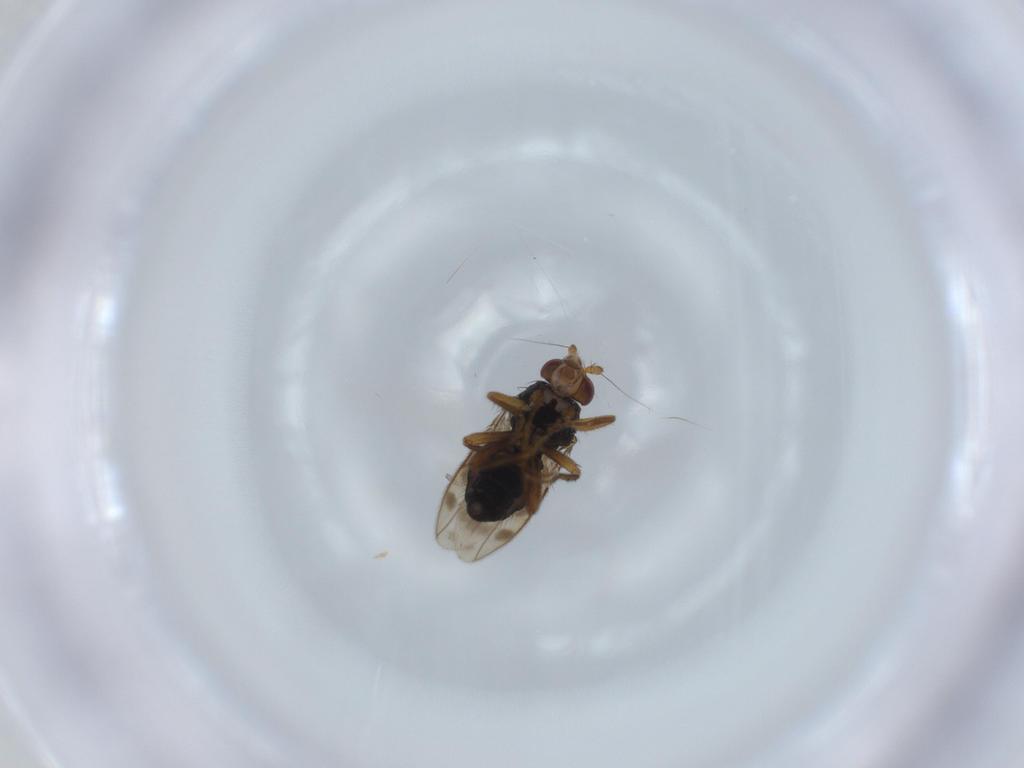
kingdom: Animalia
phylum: Arthropoda
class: Insecta
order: Diptera
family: Sphaeroceridae
